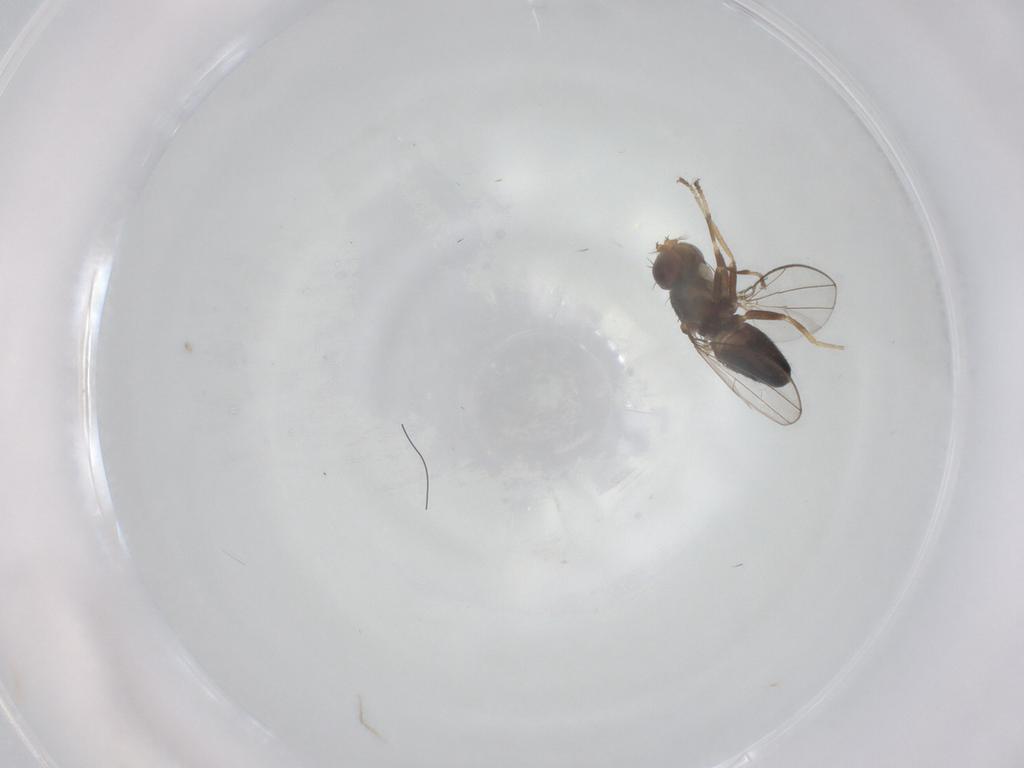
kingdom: Animalia
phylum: Arthropoda
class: Insecta
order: Diptera
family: Ephydridae
